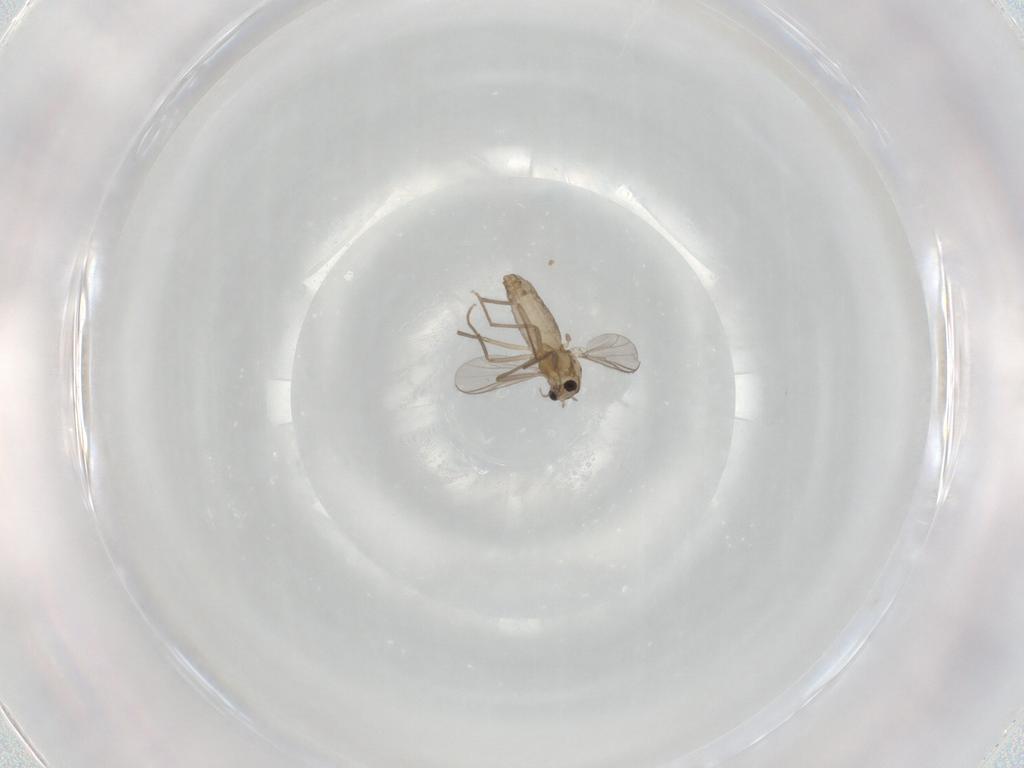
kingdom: Animalia
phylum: Arthropoda
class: Insecta
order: Diptera
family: Chironomidae
